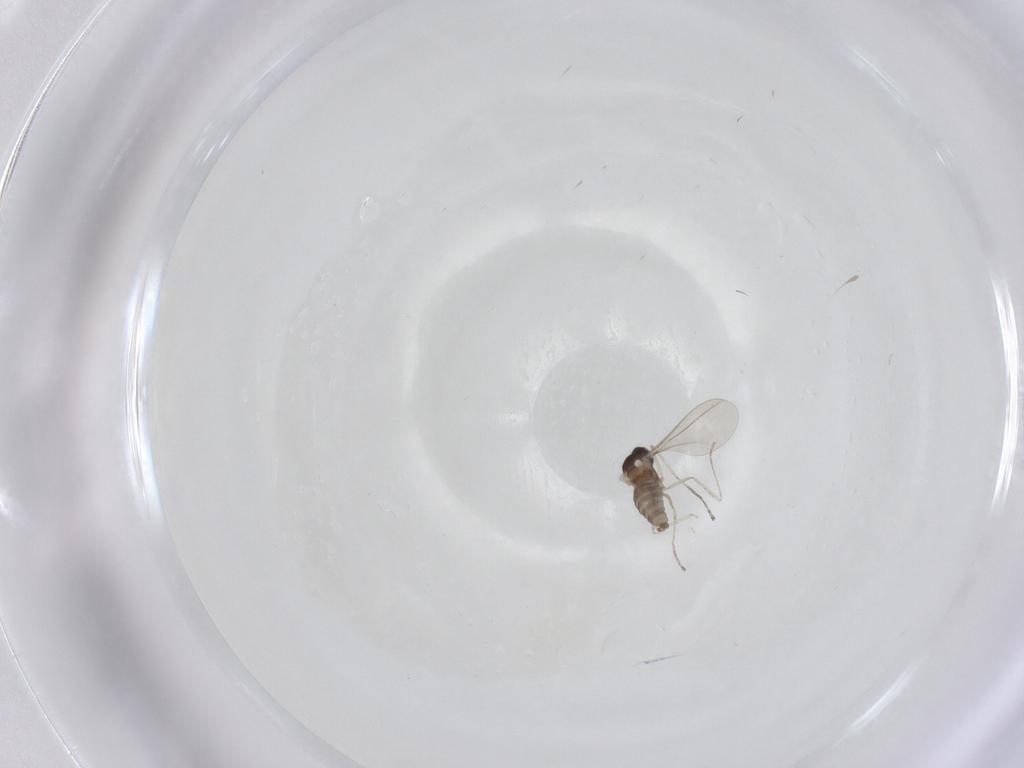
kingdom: Animalia
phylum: Arthropoda
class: Insecta
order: Diptera
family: Cecidomyiidae
